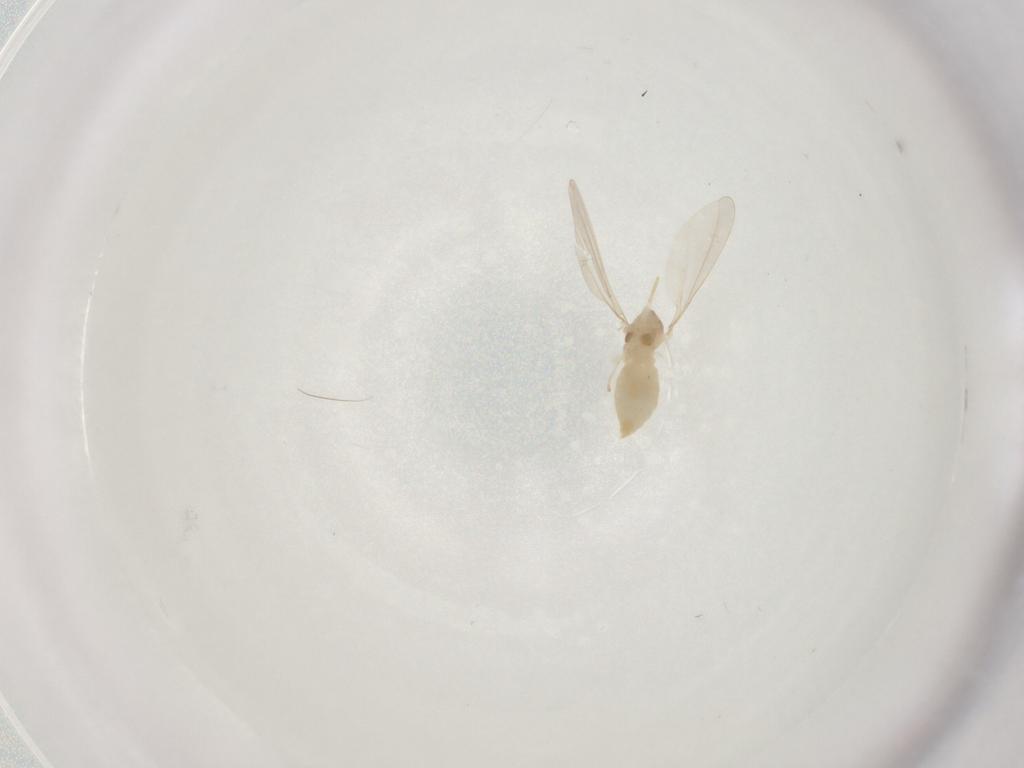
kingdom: Animalia
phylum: Arthropoda
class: Insecta
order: Diptera
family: Cecidomyiidae
